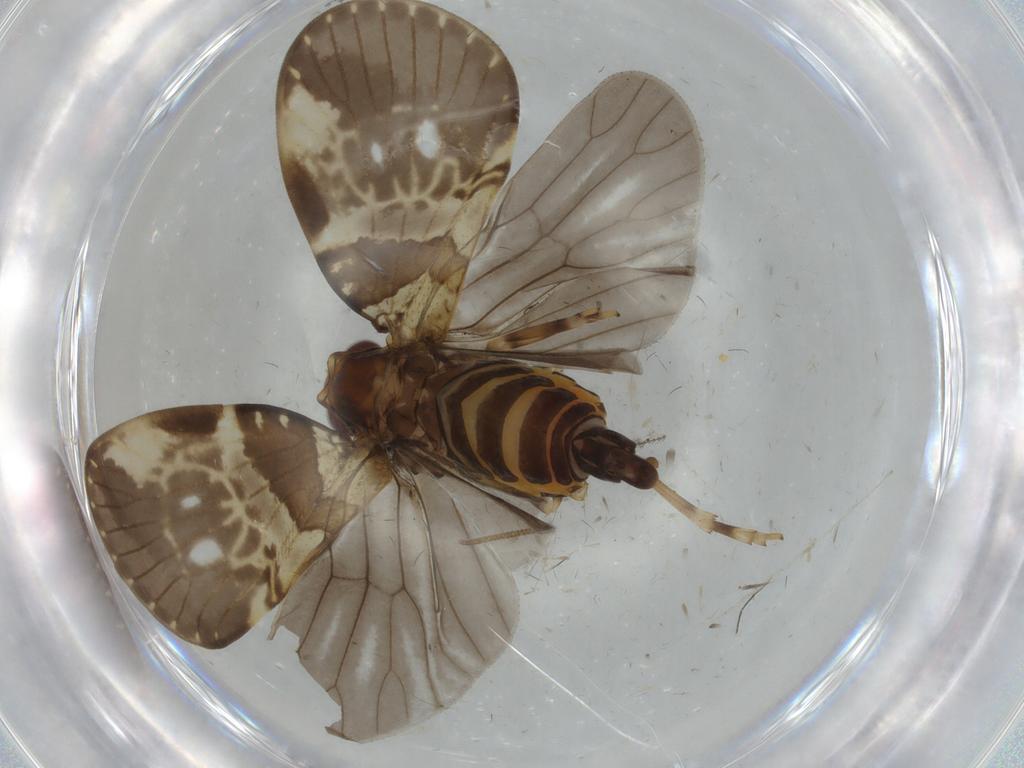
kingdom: Animalia
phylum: Arthropoda
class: Insecta
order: Hemiptera
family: Cixiidae
